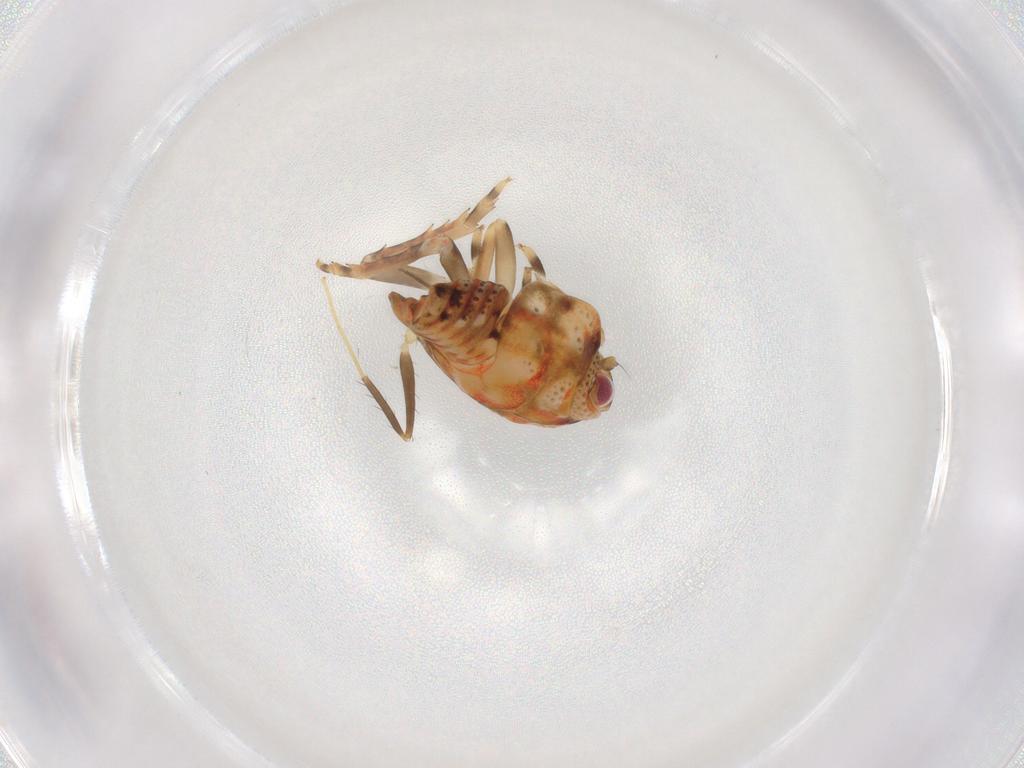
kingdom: Animalia
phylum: Arthropoda
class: Insecta
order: Hemiptera
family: Flatidae
